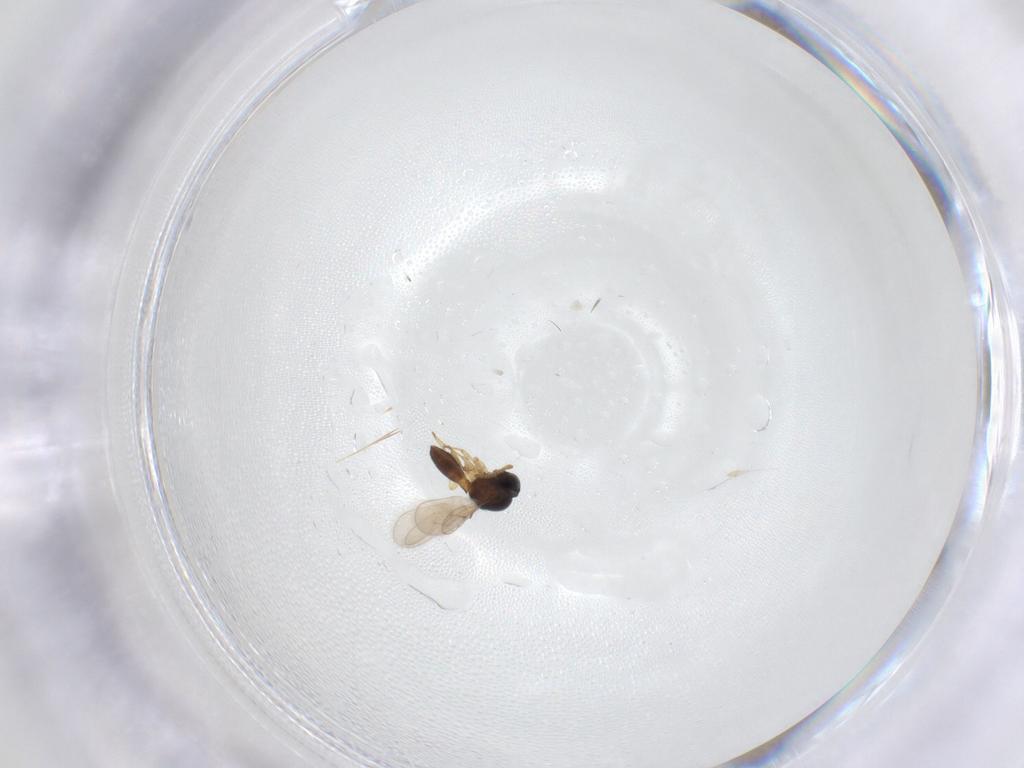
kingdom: Animalia
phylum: Arthropoda
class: Insecta
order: Hymenoptera
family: Scelionidae
